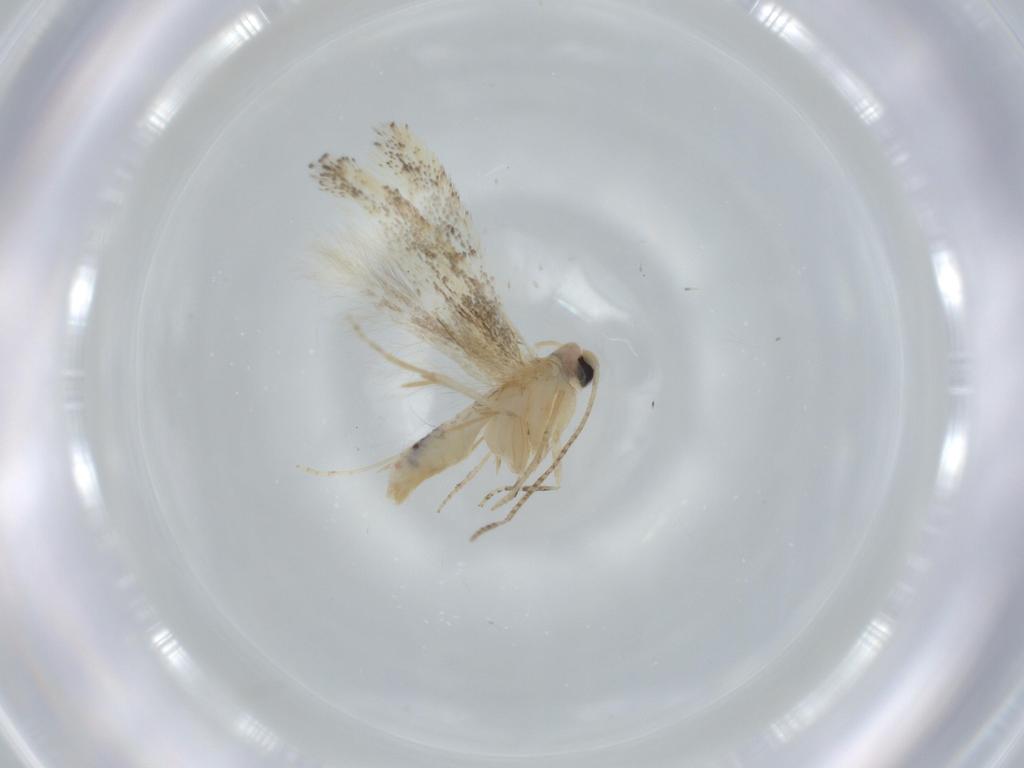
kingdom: Animalia
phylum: Arthropoda
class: Insecta
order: Lepidoptera
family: Bucculatricidae
